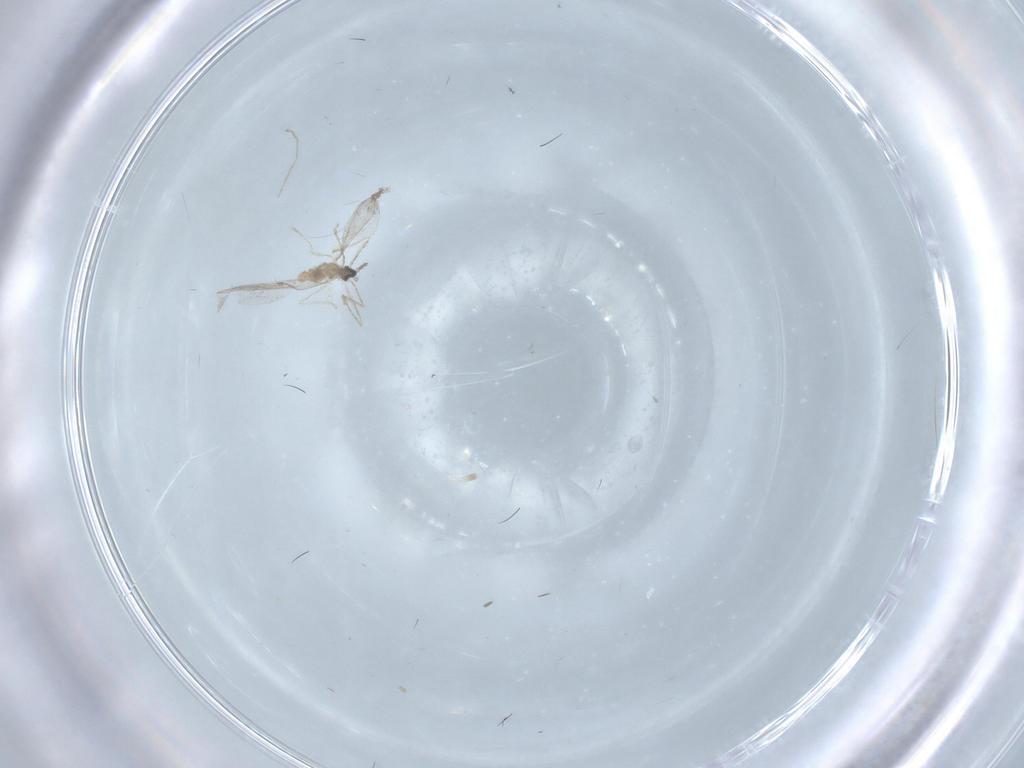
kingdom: Animalia
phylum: Arthropoda
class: Insecta
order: Diptera
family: Cecidomyiidae
